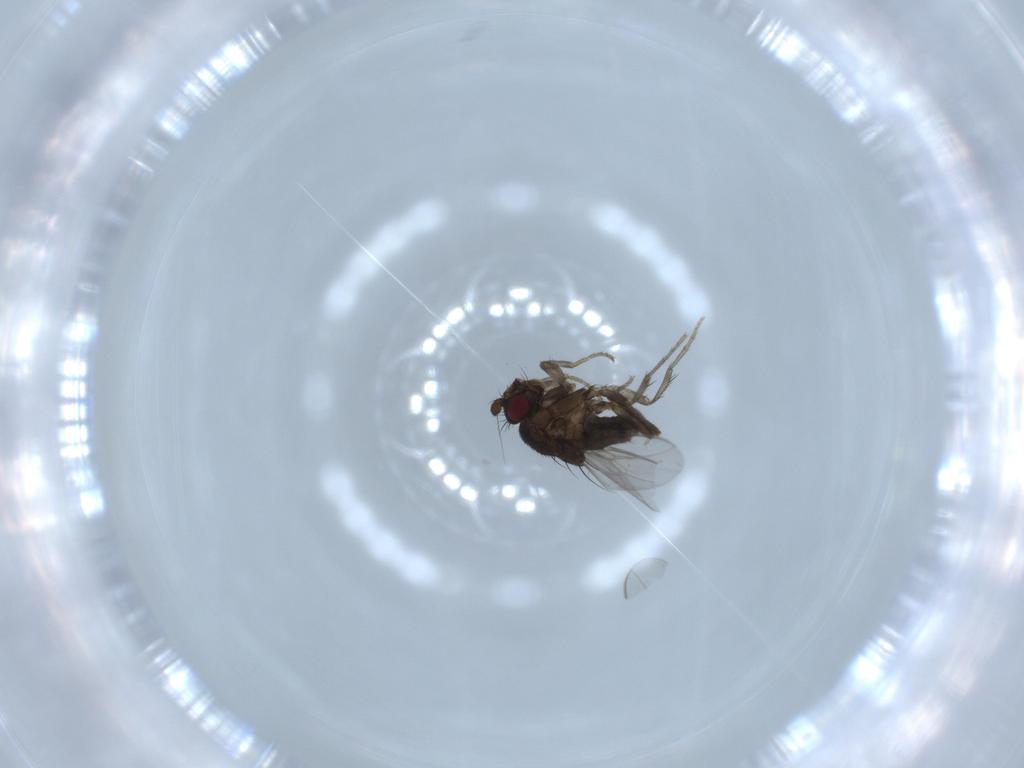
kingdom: Animalia
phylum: Arthropoda
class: Insecta
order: Diptera
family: Sphaeroceridae
